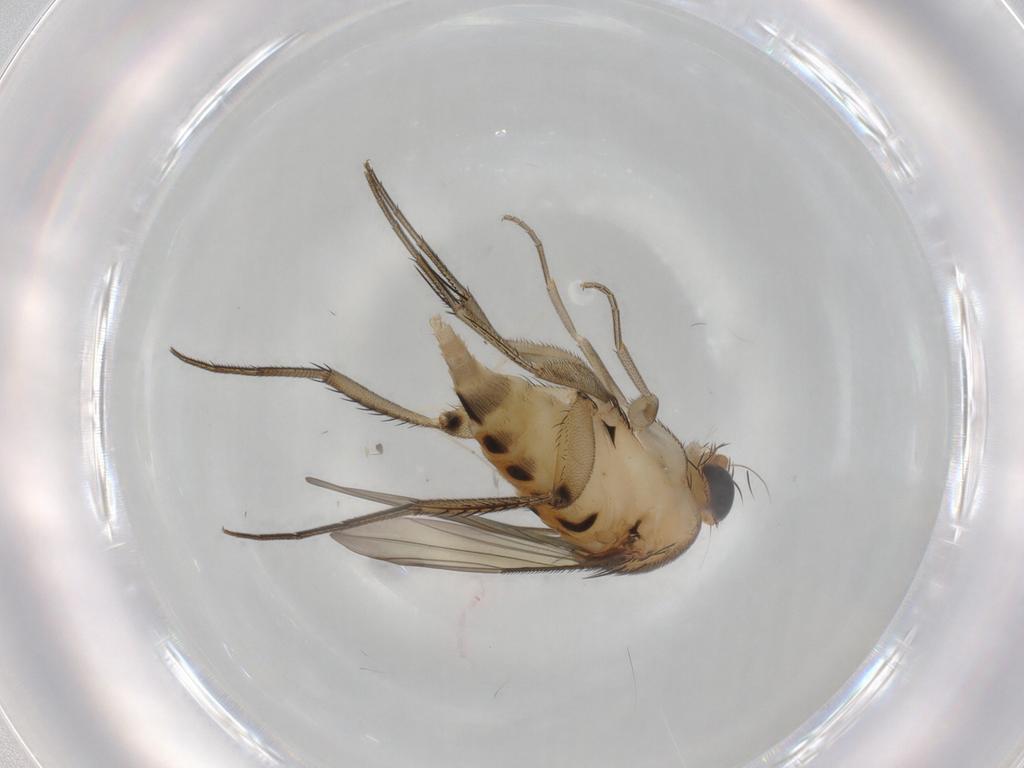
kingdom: Animalia
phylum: Arthropoda
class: Insecta
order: Diptera
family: Phoridae
